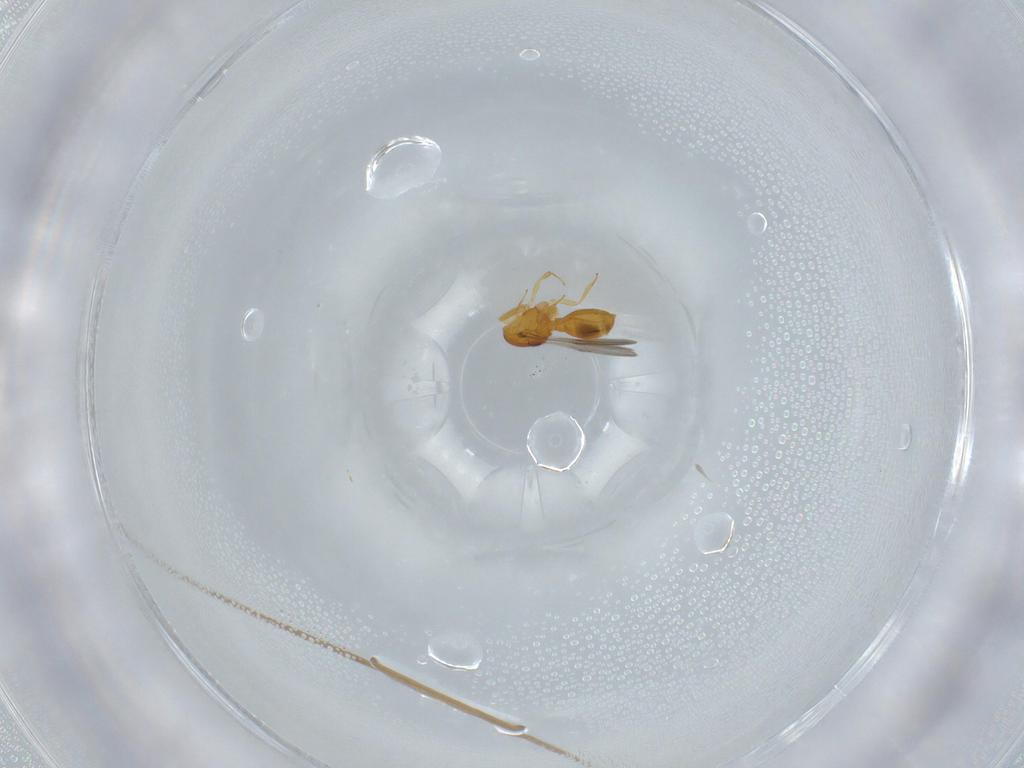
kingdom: Animalia
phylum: Arthropoda
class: Insecta
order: Hymenoptera
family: Scelionidae
